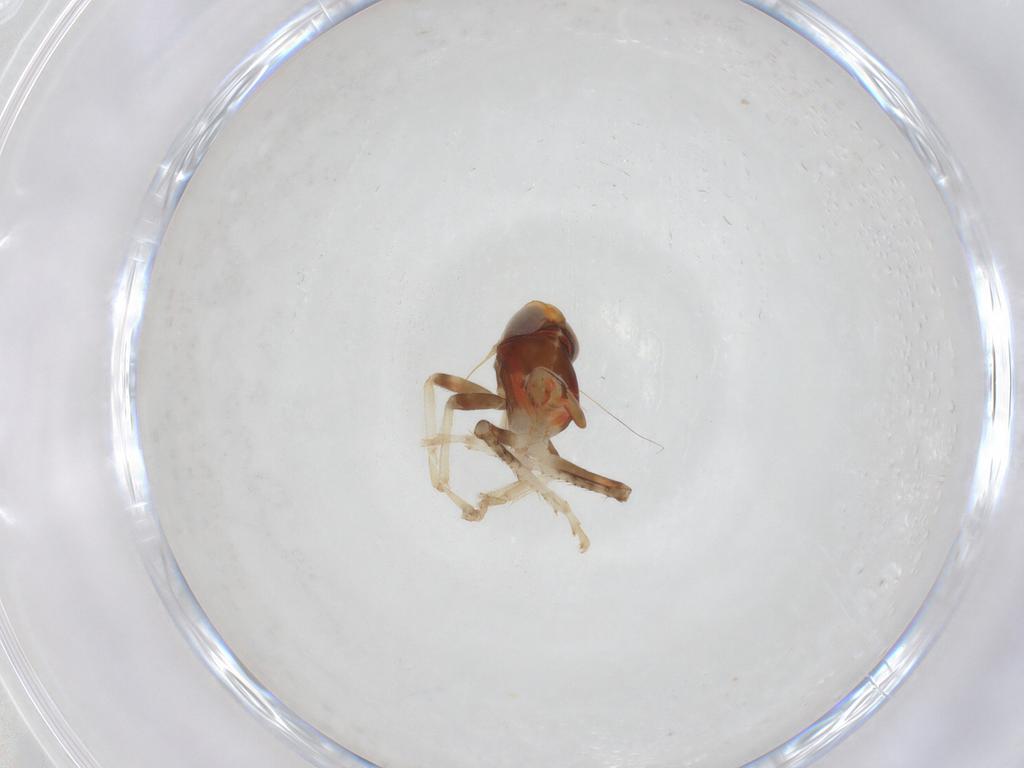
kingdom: Animalia
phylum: Arthropoda
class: Insecta
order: Hemiptera
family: Cicadellidae
